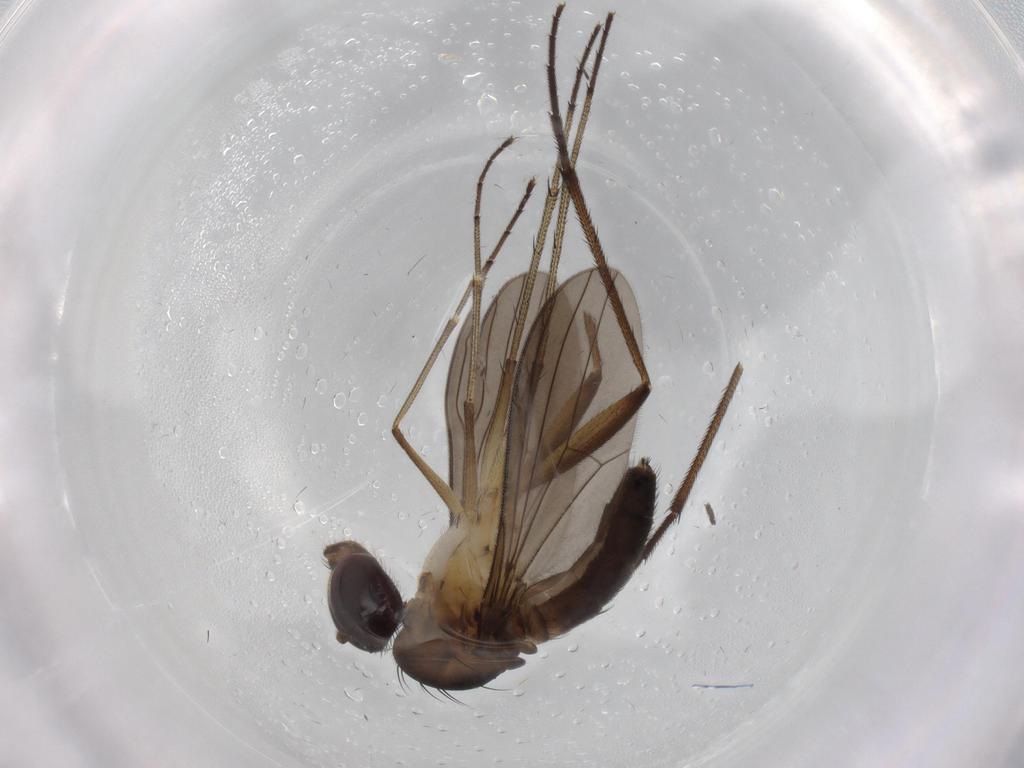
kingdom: Animalia
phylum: Arthropoda
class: Insecta
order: Diptera
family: Dolichopodidae
